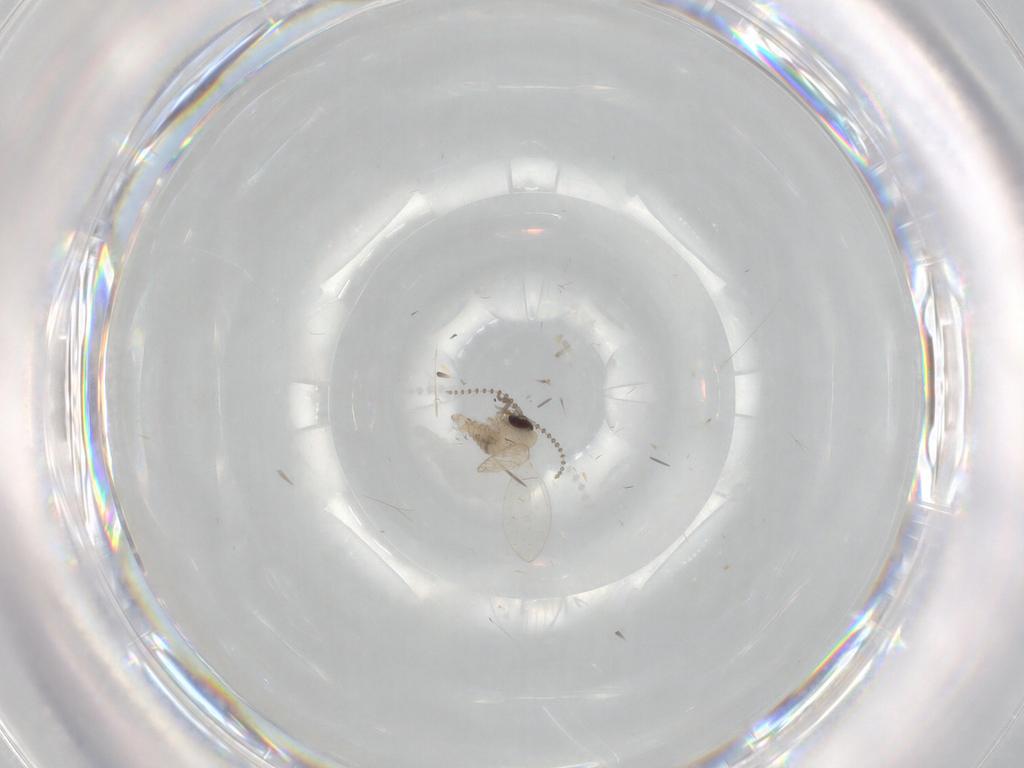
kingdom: Animalia
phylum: Arthropoda
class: Insecta
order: Diptera
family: Psychodidae
